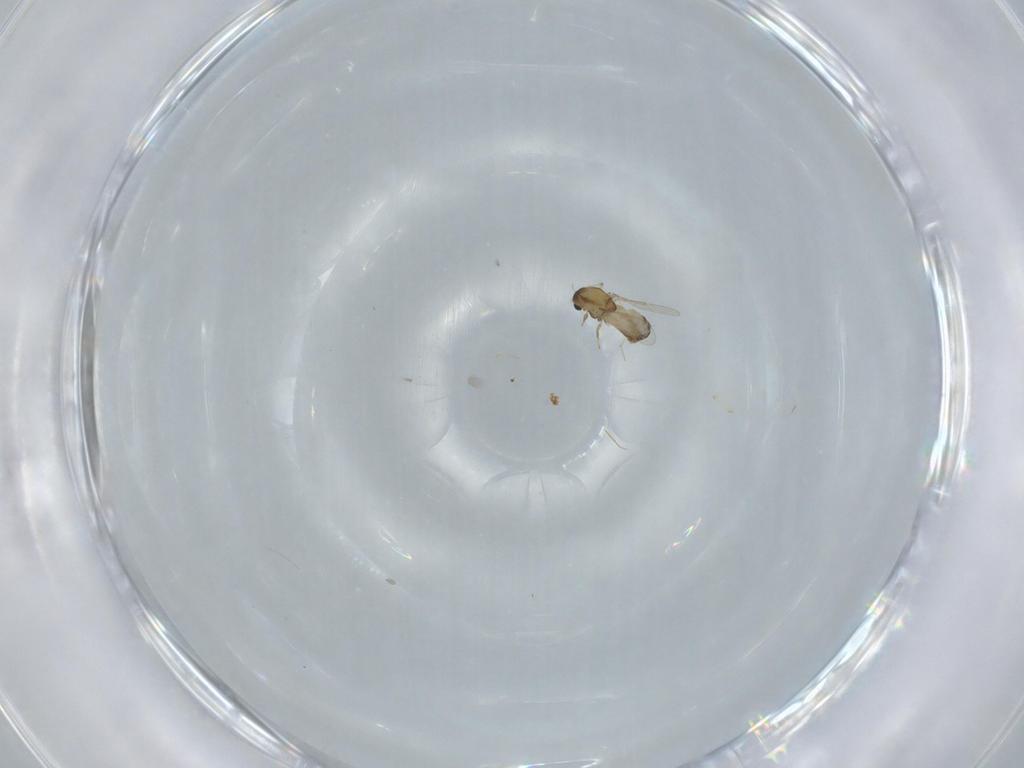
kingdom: Animalia
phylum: Arthropoda
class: Insecta
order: Diptera
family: Chironomidae
